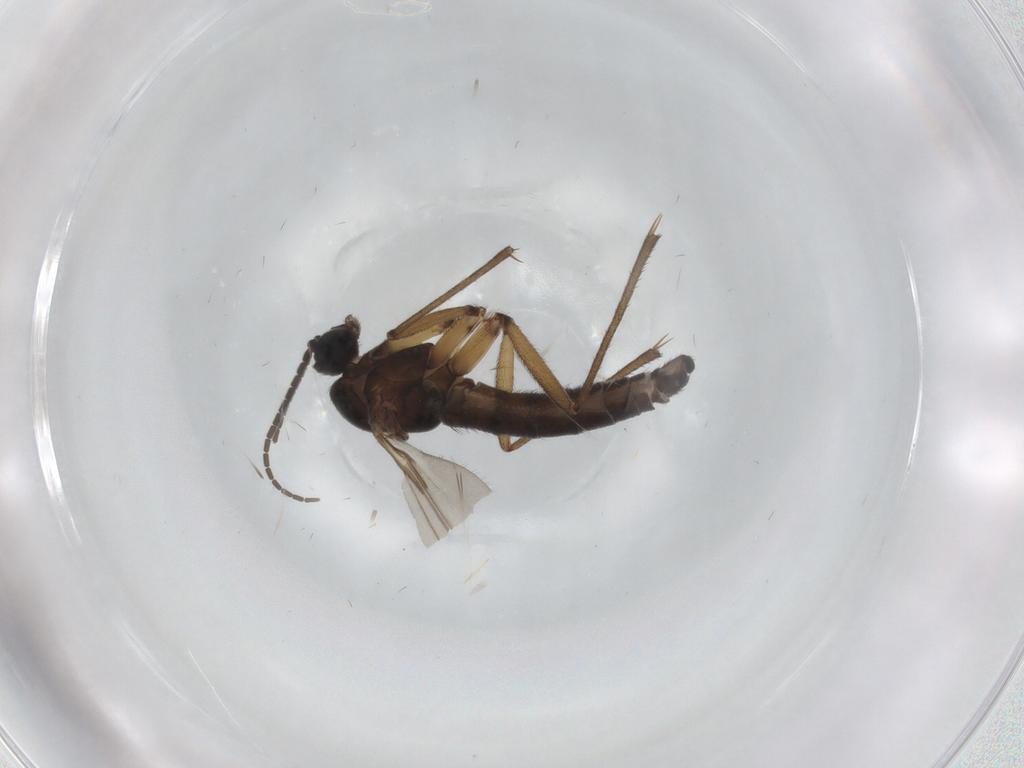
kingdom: Animalia
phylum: Arthropoda
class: Insecta
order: Diptera
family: Sciaridae
